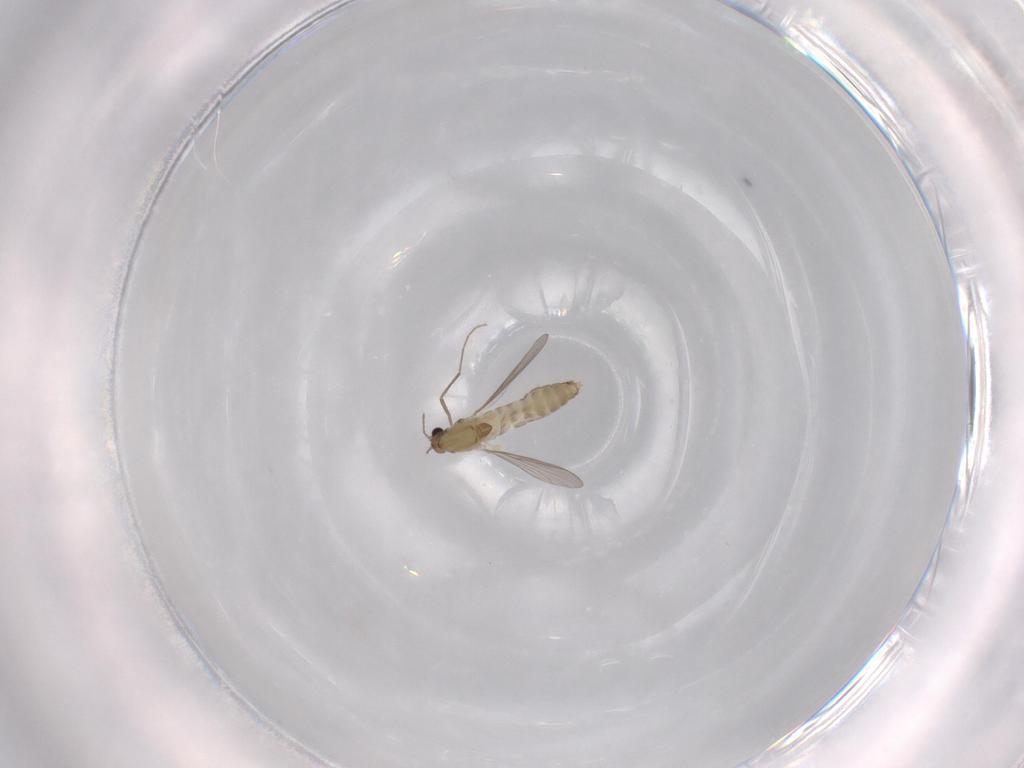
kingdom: Animalia
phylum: Arthropoda
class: Insecta
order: Diptera
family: Chironomidae
